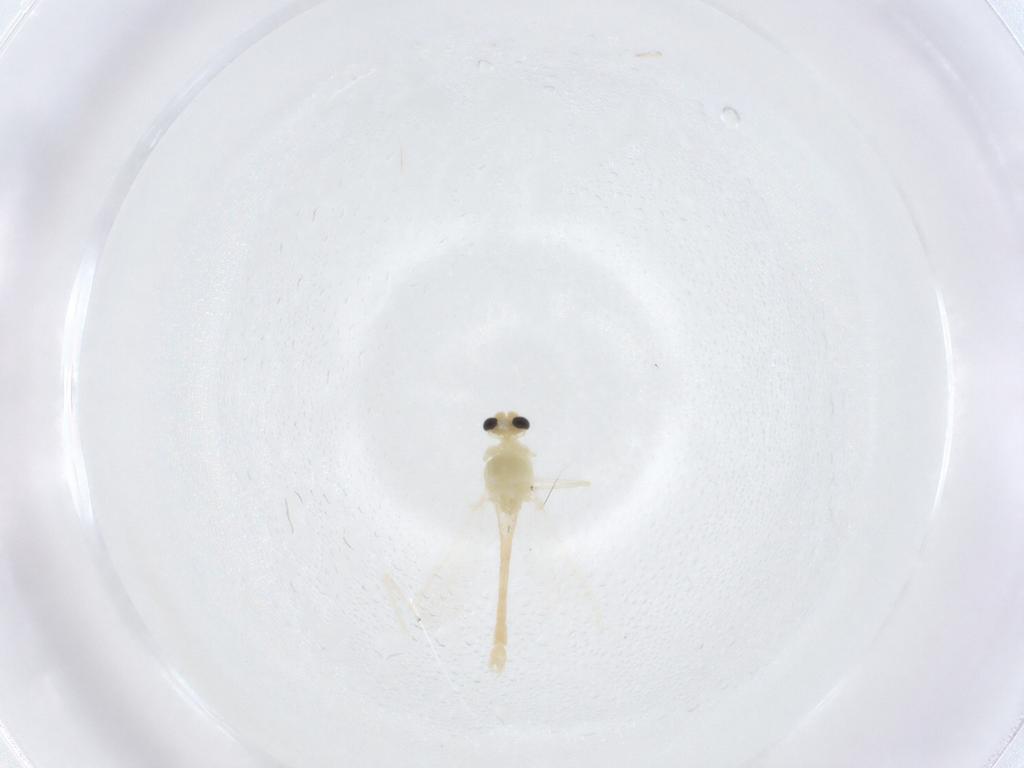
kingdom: Animalia
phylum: Arthropoda
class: Insecta
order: Diptera
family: Chironomidae
